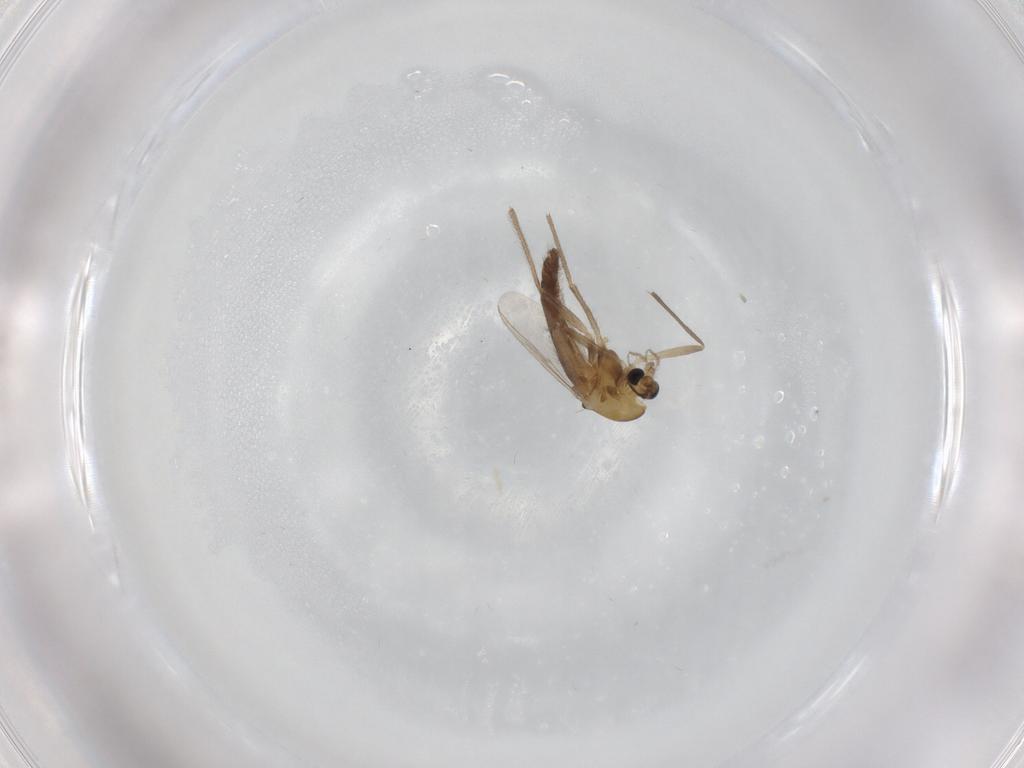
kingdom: Animalia
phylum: Arthropoda
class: Insecta
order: Diptera
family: Chironomidae
